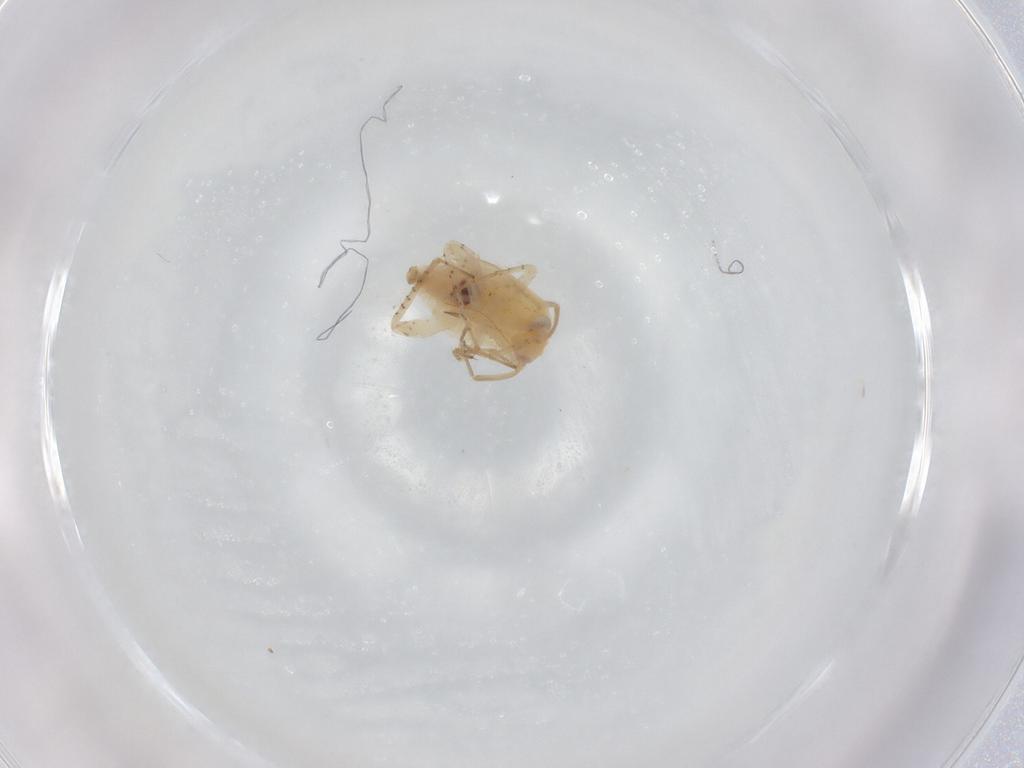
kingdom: Animalia
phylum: Arthropoda
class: Insecta
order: Hemiptera
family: Miridae
